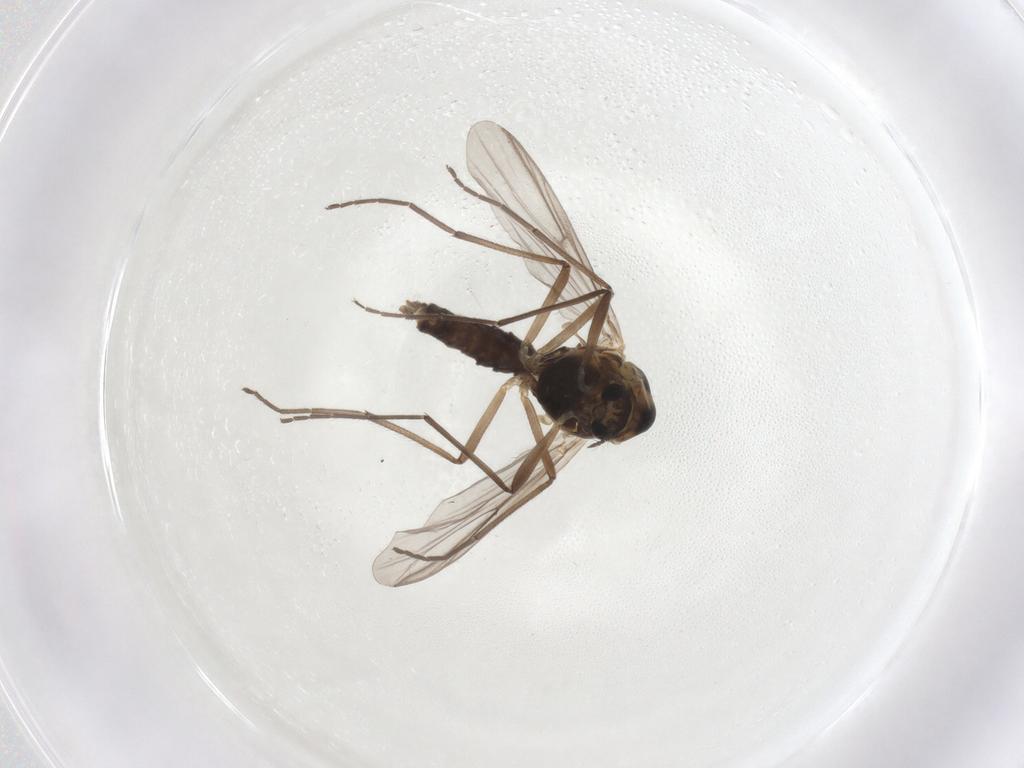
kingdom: Animalia
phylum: Arthropoda
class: Insecta
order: Diptera
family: Chironomidae
